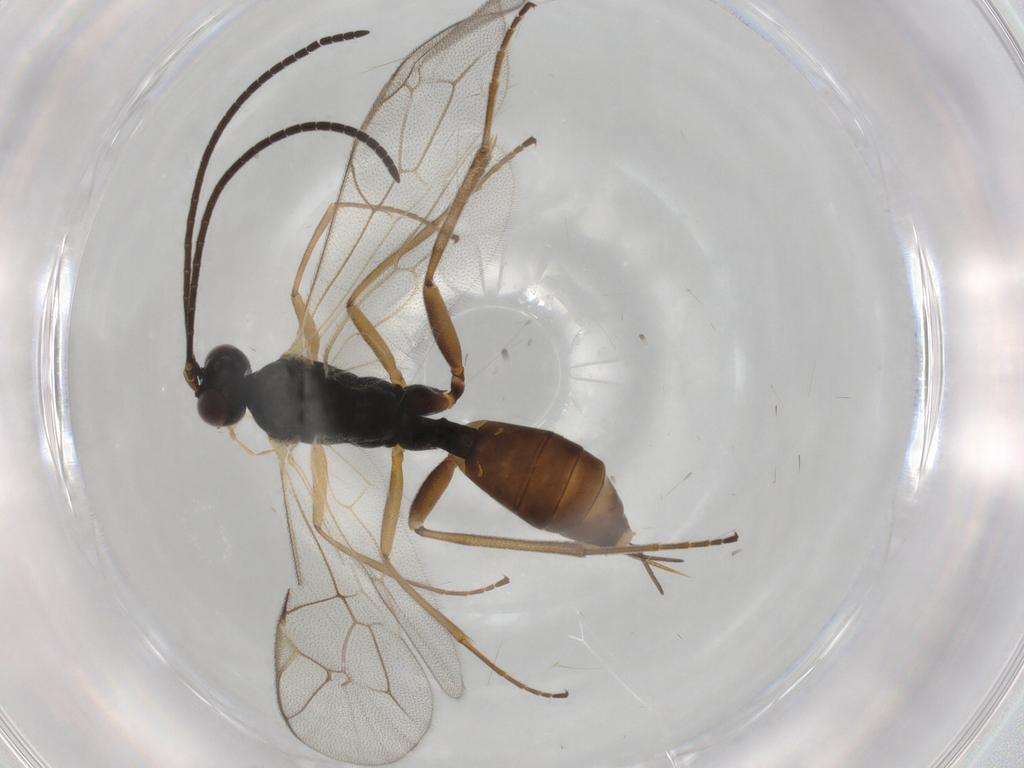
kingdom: Animalia
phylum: Arthropoda
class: Insecta
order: Hymenoptera
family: Ichneumonidae
